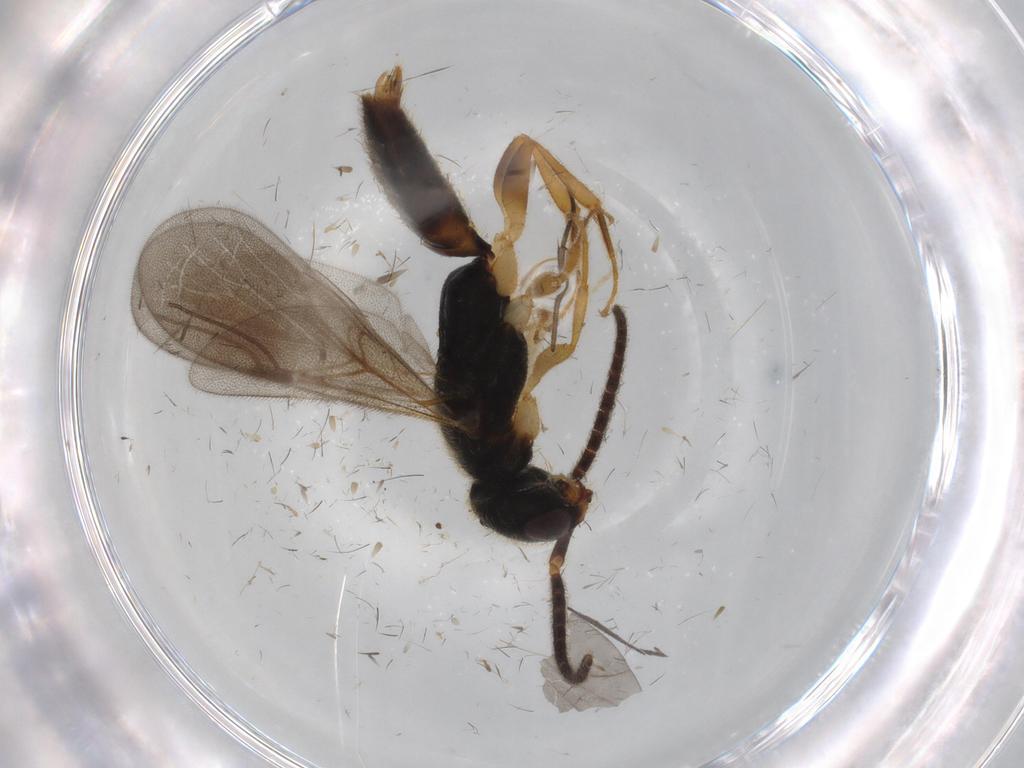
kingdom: Animalia
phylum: Arthropoda
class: Insecta
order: Hymenoptera
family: Bethylidae
